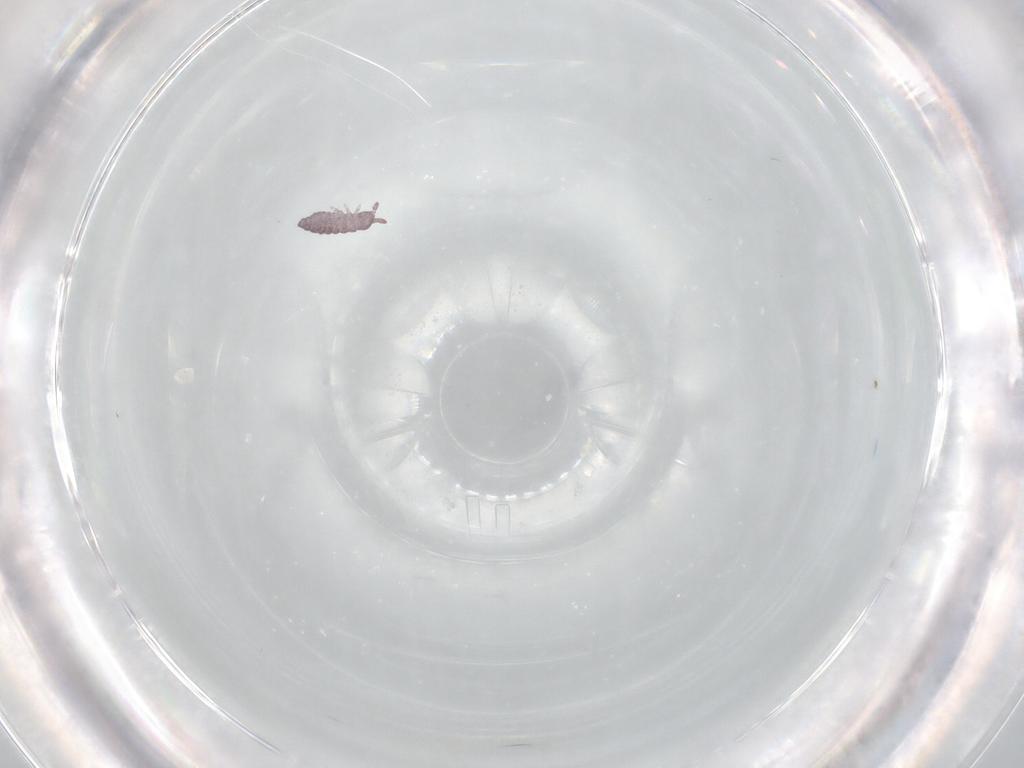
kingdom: Animalia
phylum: Arthropoda
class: Collembola
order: Poduromorpha
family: Hypogastruridae
